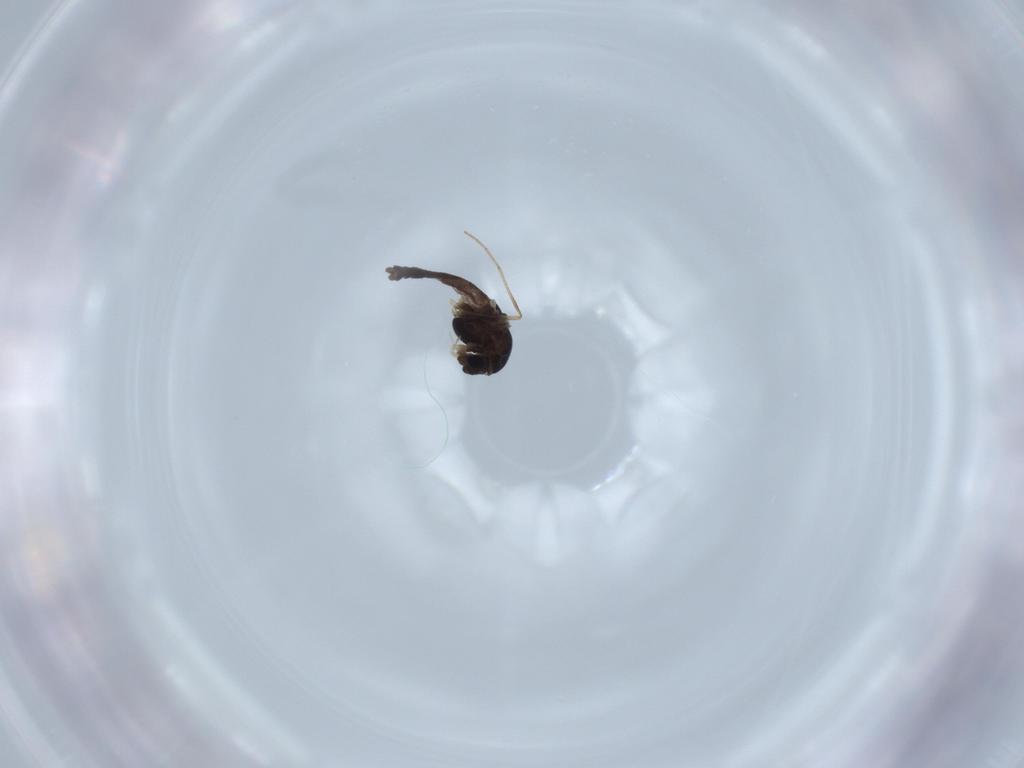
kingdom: Animalia
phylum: Arthropoda
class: Insecta
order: Diptera
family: Chironomidae
